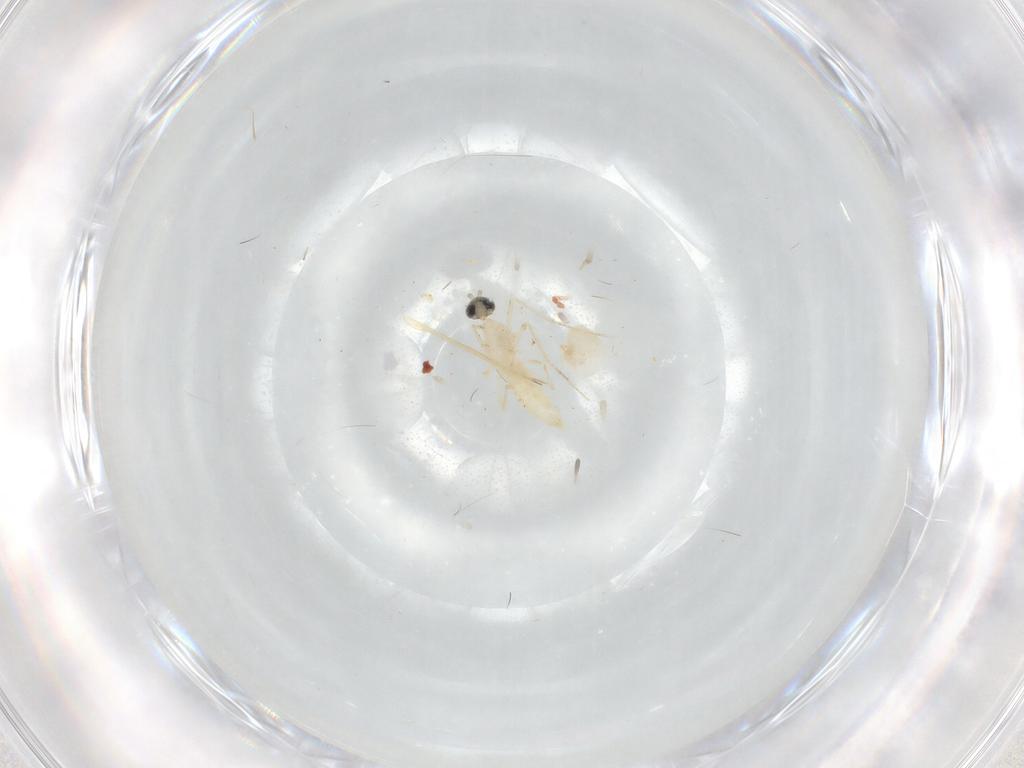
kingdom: Animalia
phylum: Arthropoda
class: Insecta
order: Diptera
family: Cecidomyiidae
